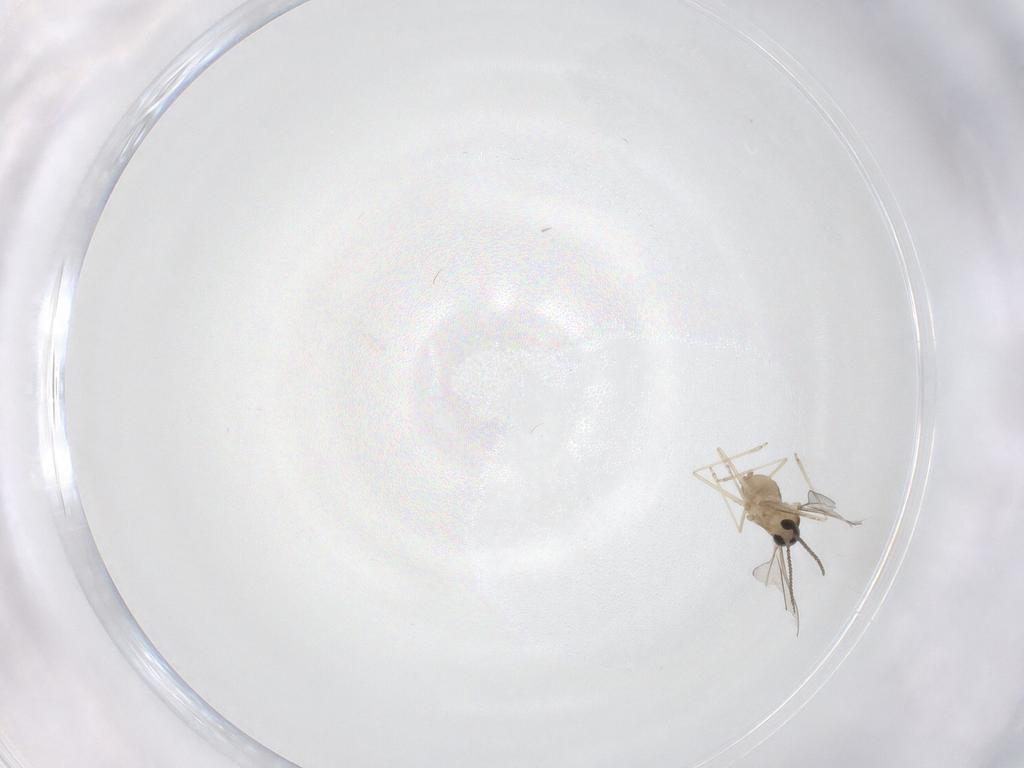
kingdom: Animalia
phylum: Arthropoda
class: Insecta
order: Diptera
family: Cecidomyiidae
